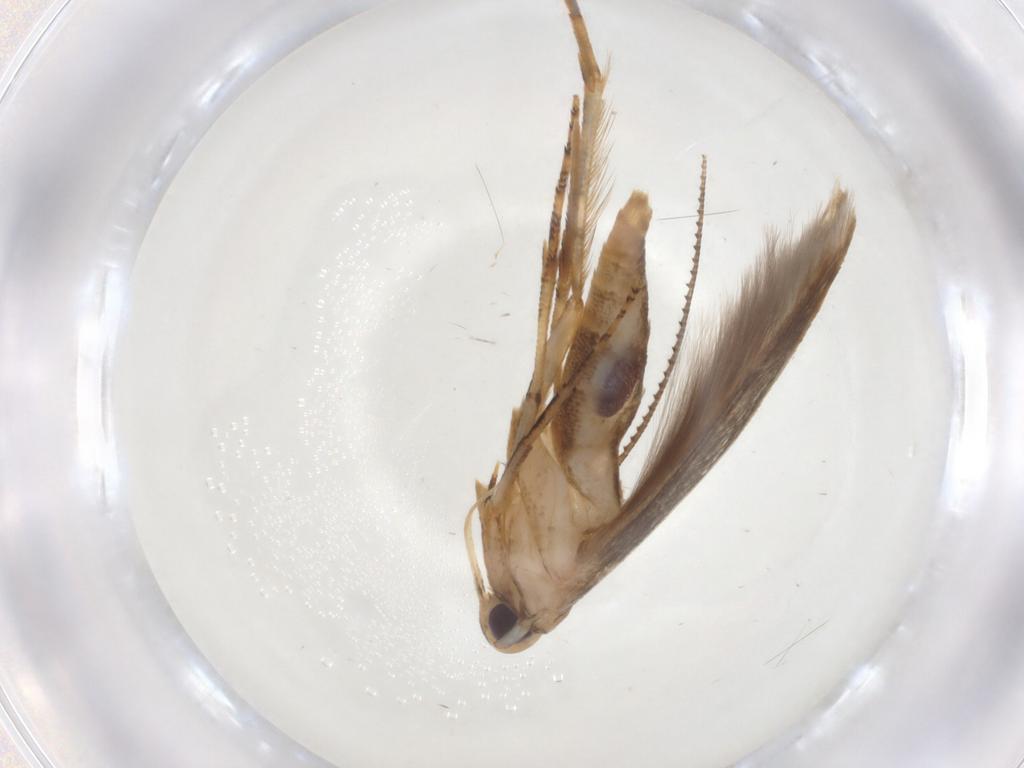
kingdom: Animalia
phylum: Arthropoda
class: Insecta
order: Lepidoptera
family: Gelechiidae
